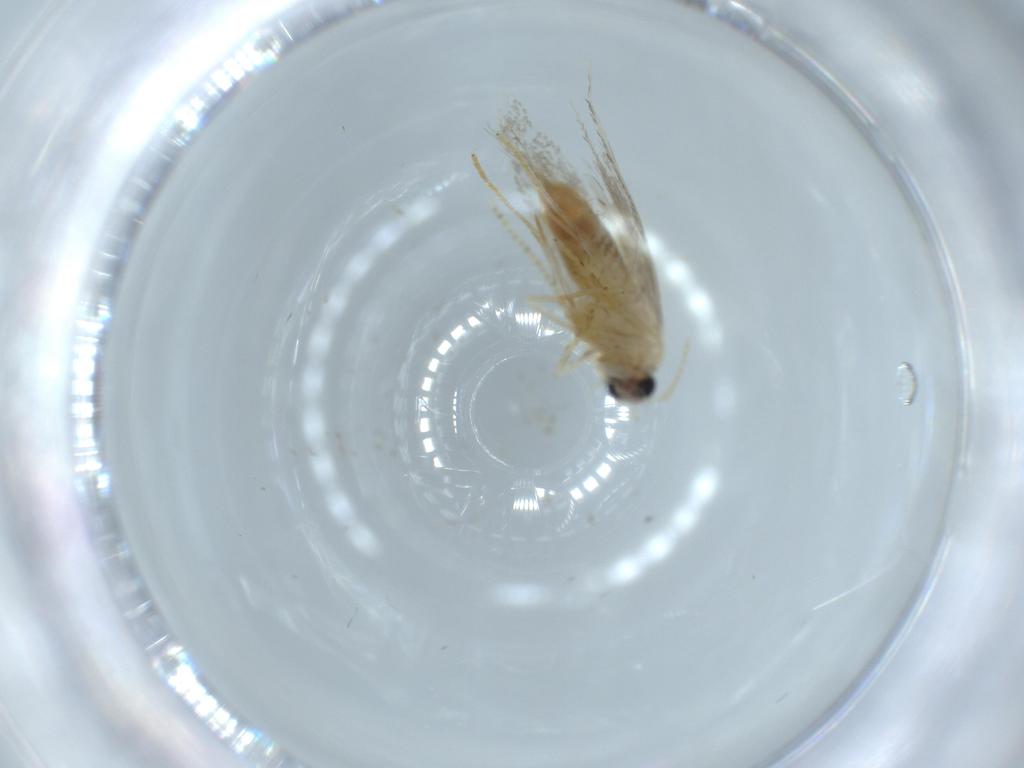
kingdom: Animalia
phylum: Arthropoda
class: Insecta
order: Lepidoptera
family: Tineidae
